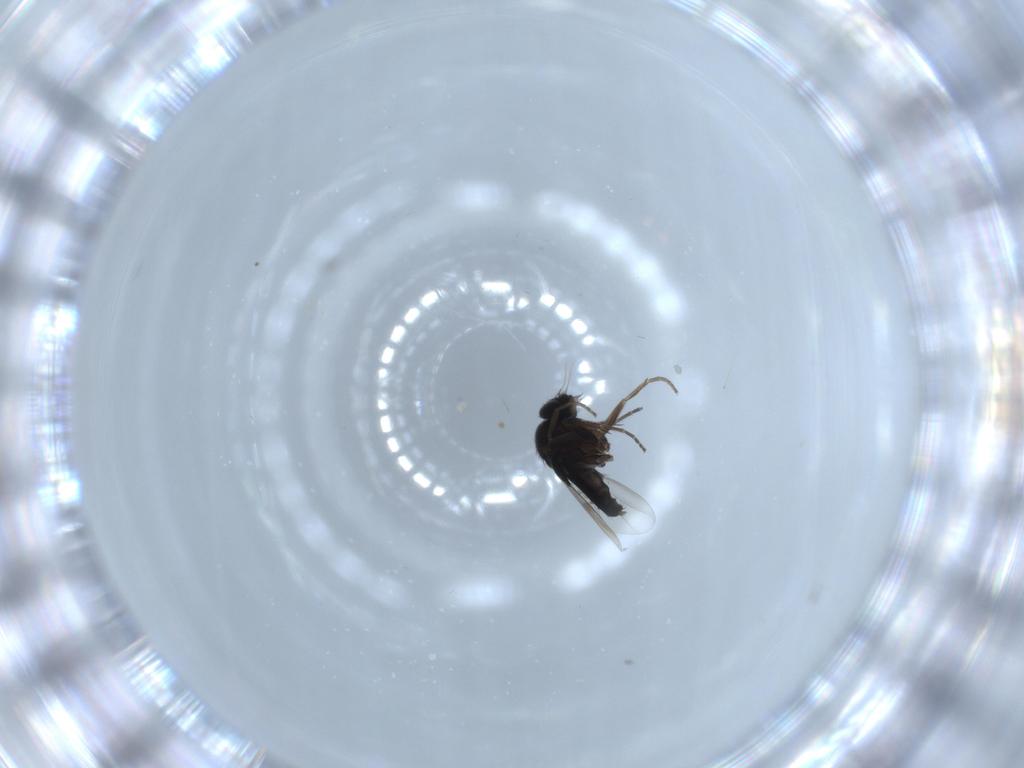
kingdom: Animalia
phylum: Arthropoda
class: Insecta
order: Diptera
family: Phoridae
